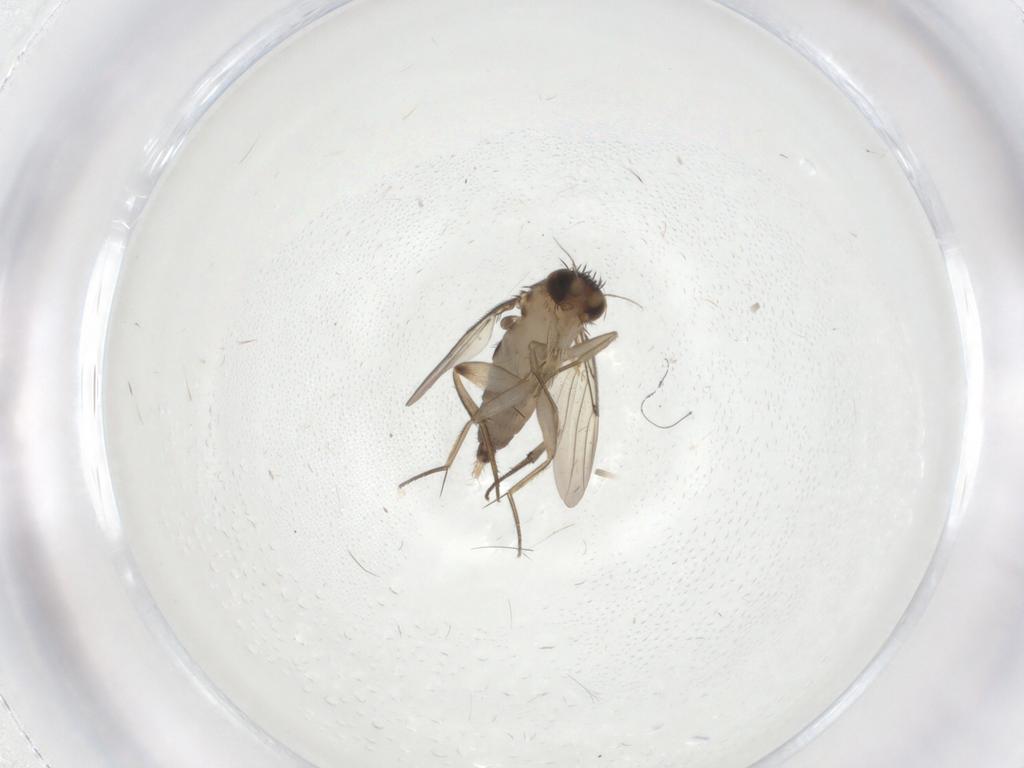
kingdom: Animalia
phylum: Arthropoda
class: Insecta
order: Diptera
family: Phoridae
